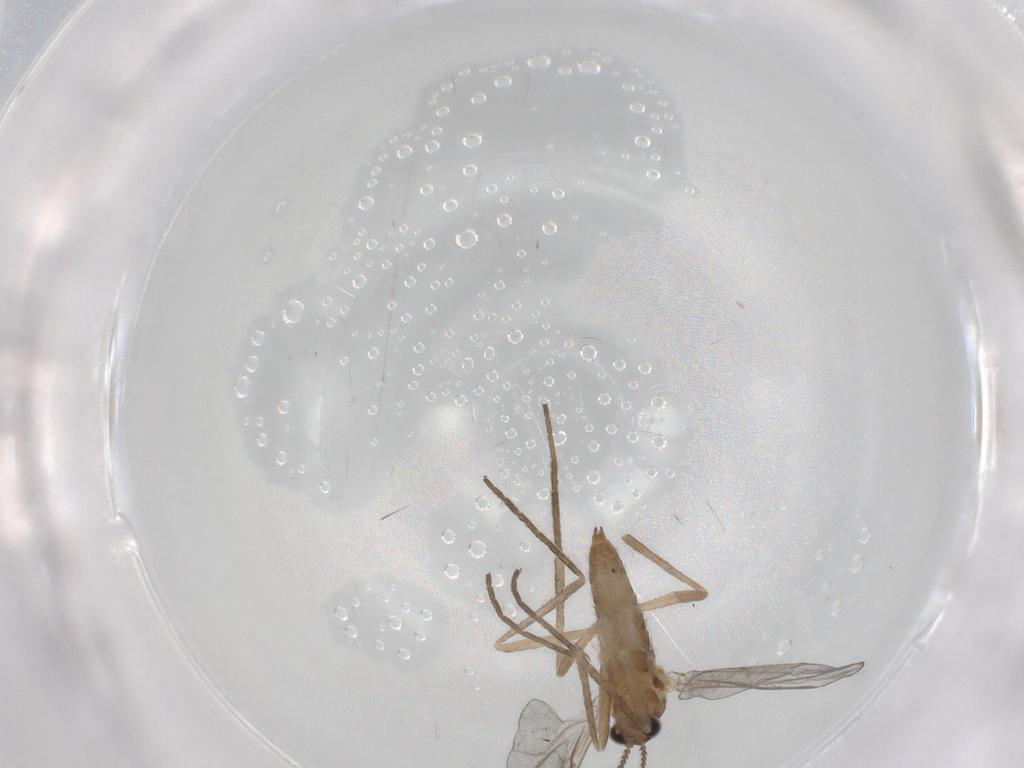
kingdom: Animalia
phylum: Arthropoda
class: Insecta
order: Diptera
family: Cecidomyiidae
